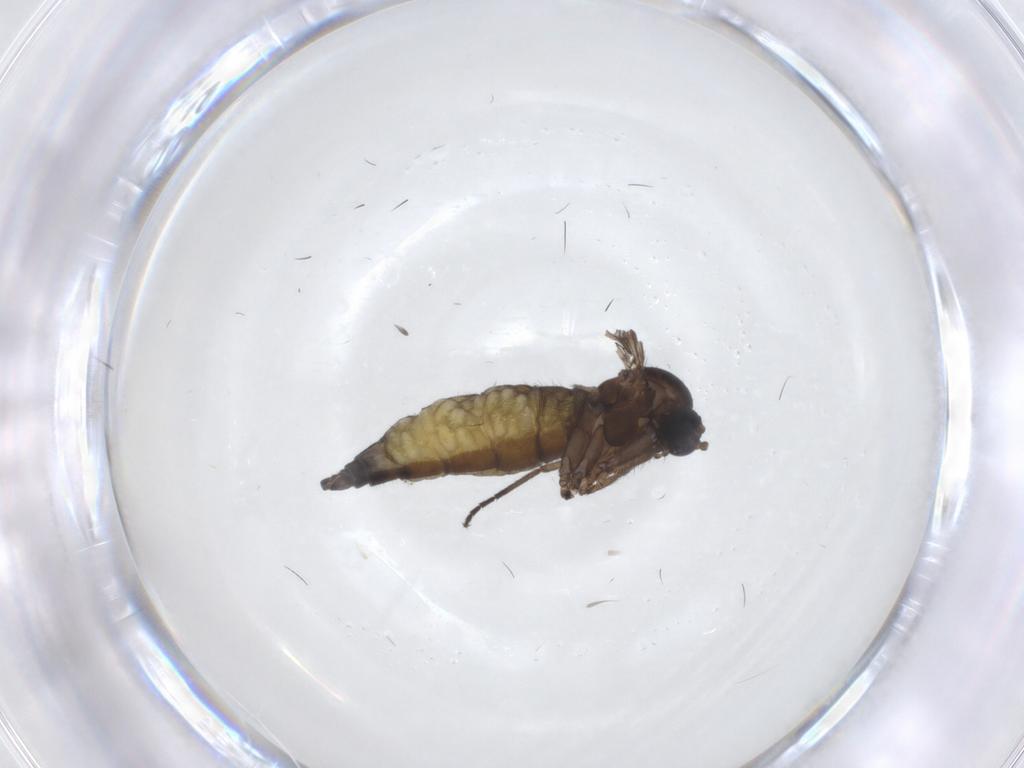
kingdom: Animalia
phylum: Arthropoda
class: Insecta
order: Diptera
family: Sciaridae
